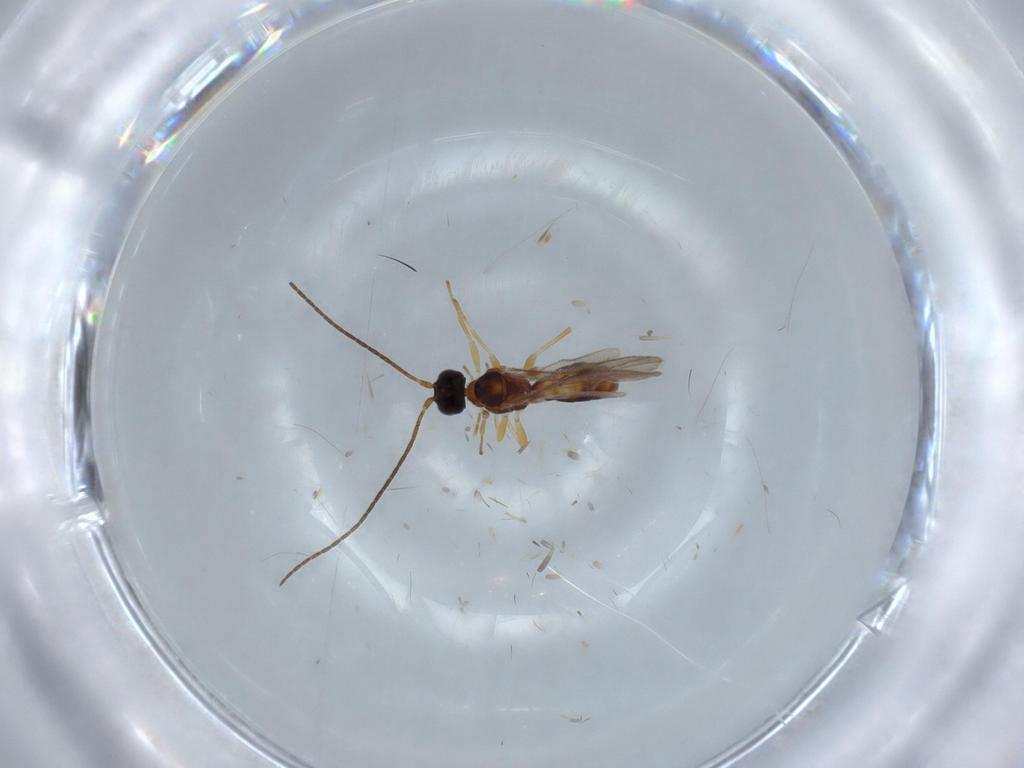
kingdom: Animalia
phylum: Arthropoda
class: Insecta
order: Hymenoptera
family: Braconidae
